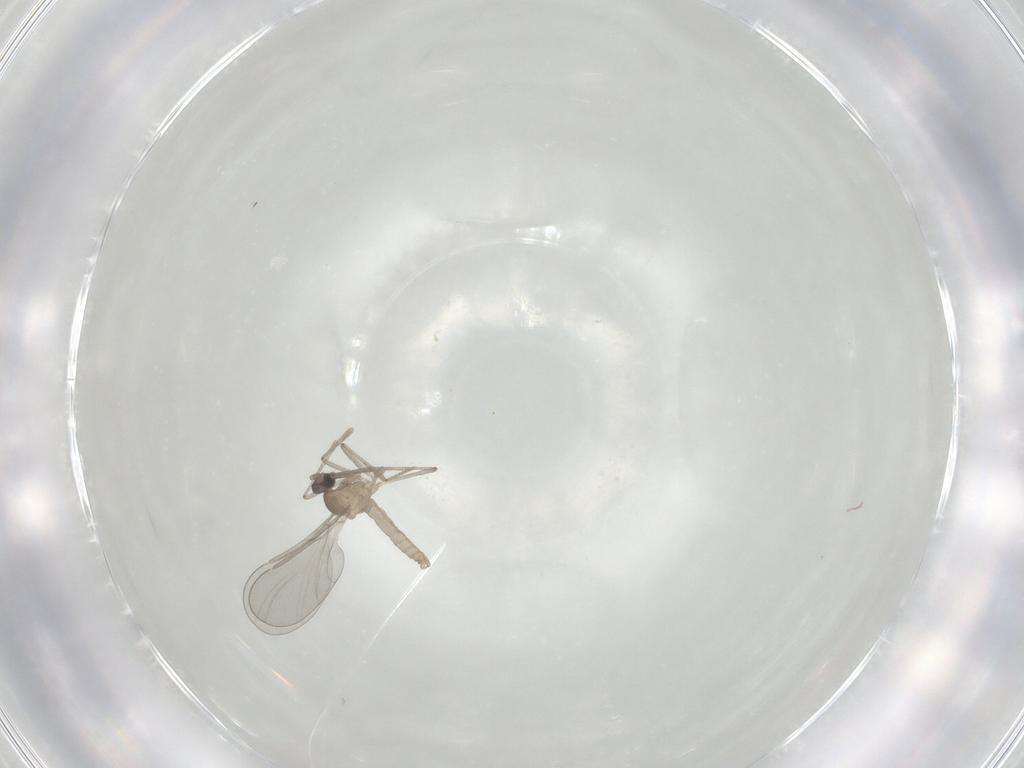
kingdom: Animalia
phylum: Arthropoda
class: Insecta
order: Diptera
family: Cecidomyiidae
